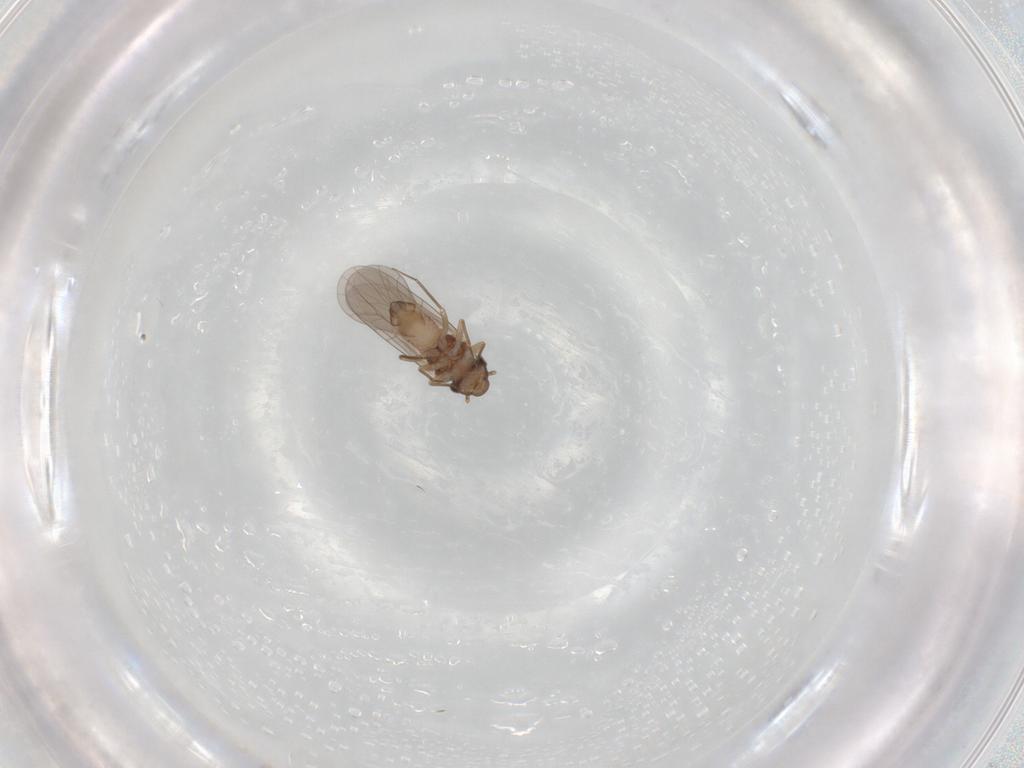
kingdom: Animalia
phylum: Arthropoda
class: Insecta
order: Psocodea
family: Lepidopsocidae
